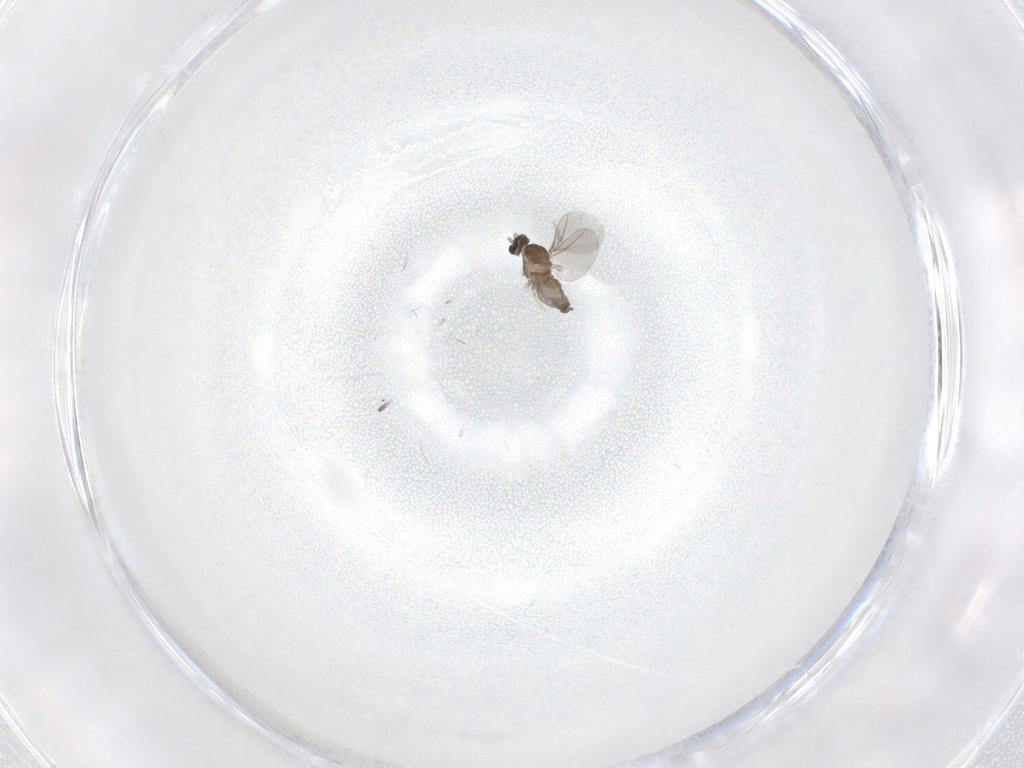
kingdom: Animalia
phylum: Arthropoda
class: Insecta
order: Diptera
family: Cecidomyiidae
